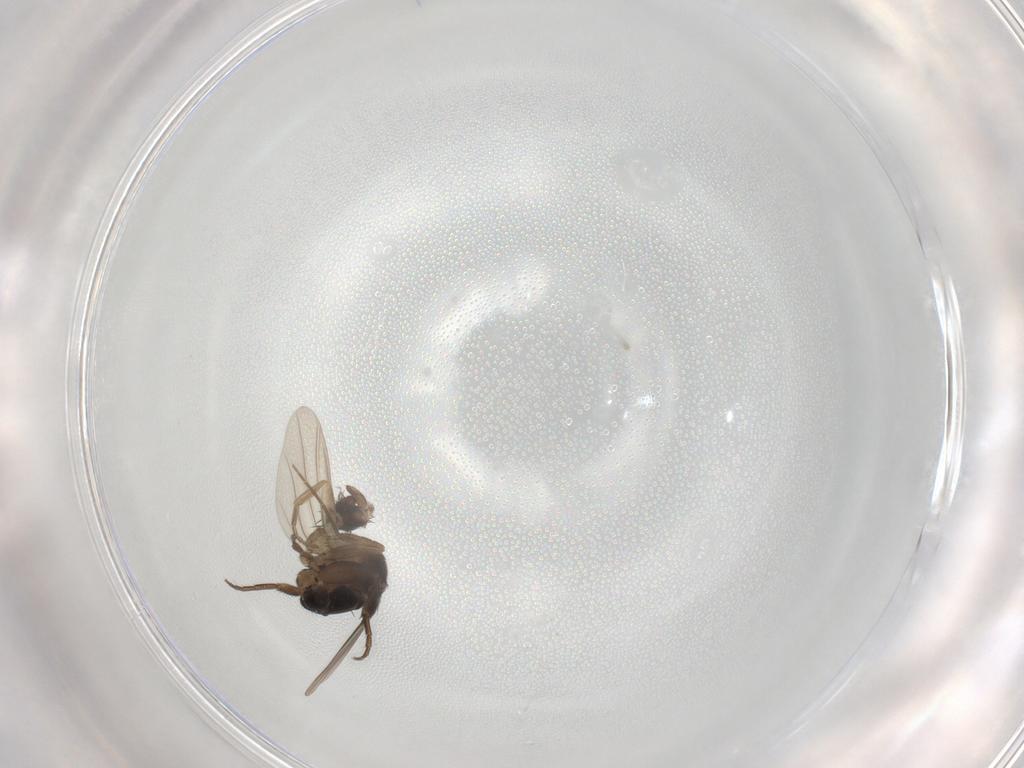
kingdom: Animalia
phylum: Arthropoda
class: Insecta
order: Diptera
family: Phoridae
